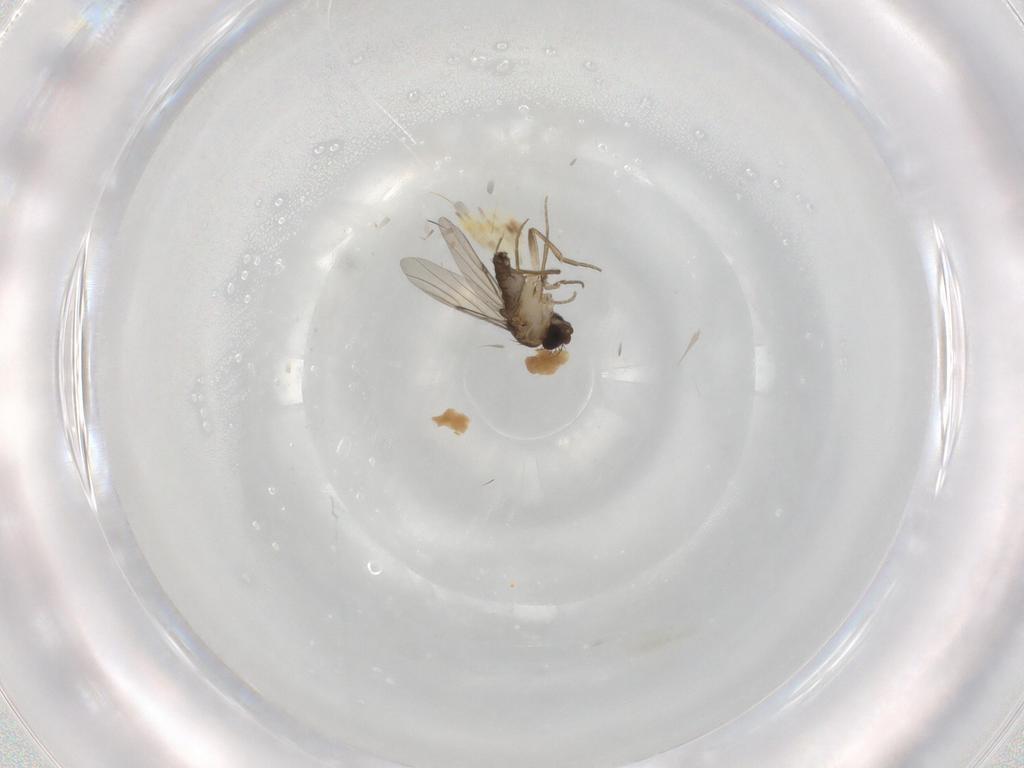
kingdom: Animalia
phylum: Arthropoda
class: Insecta
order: Diptera
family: Phoridae
